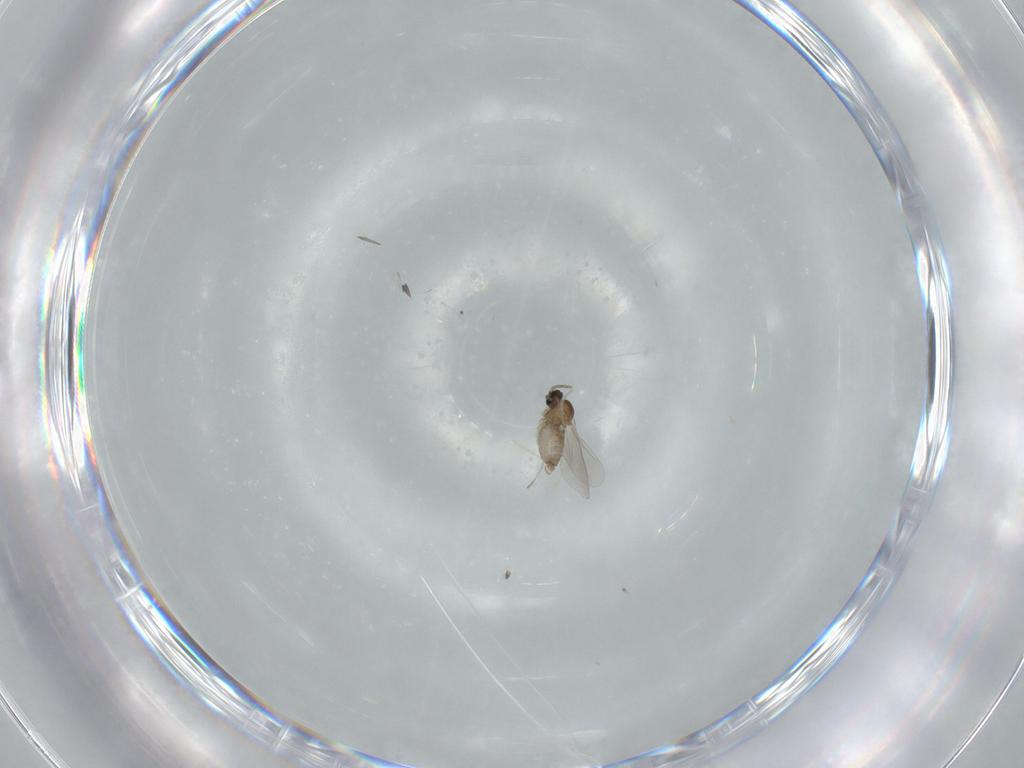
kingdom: Animalia
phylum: Arthropoda
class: Insecta
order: Diptera
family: Cecidomyiidae
